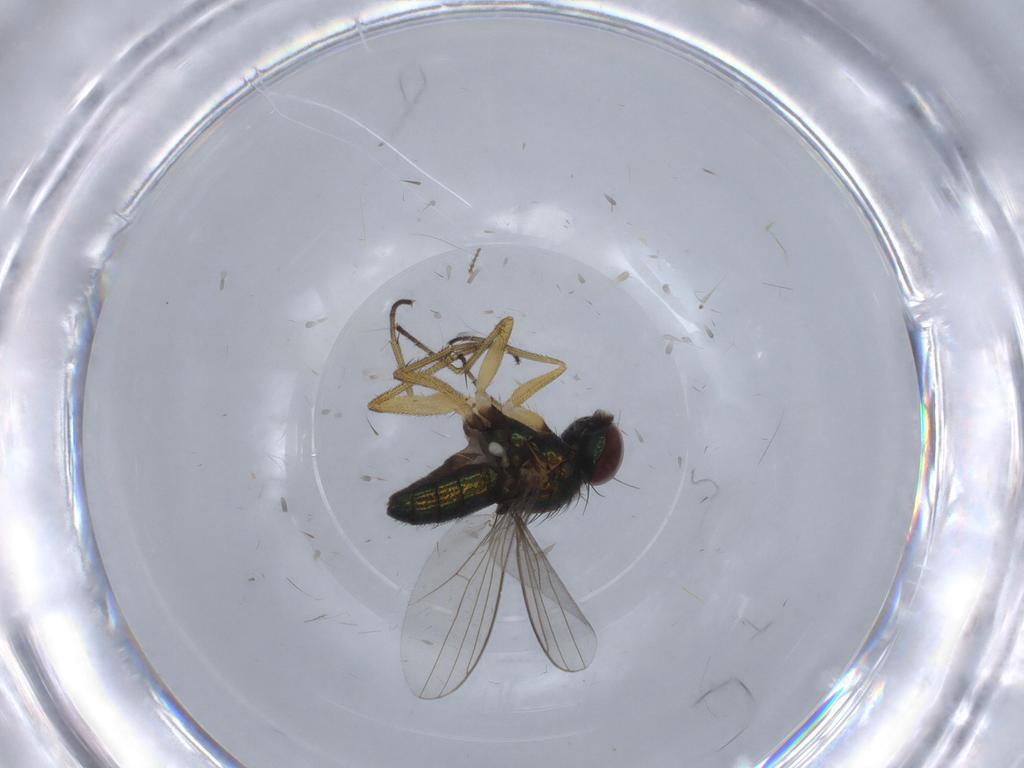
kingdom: Animalia
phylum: Arthropoda
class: Insecta
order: Diptera
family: Limoniidae
